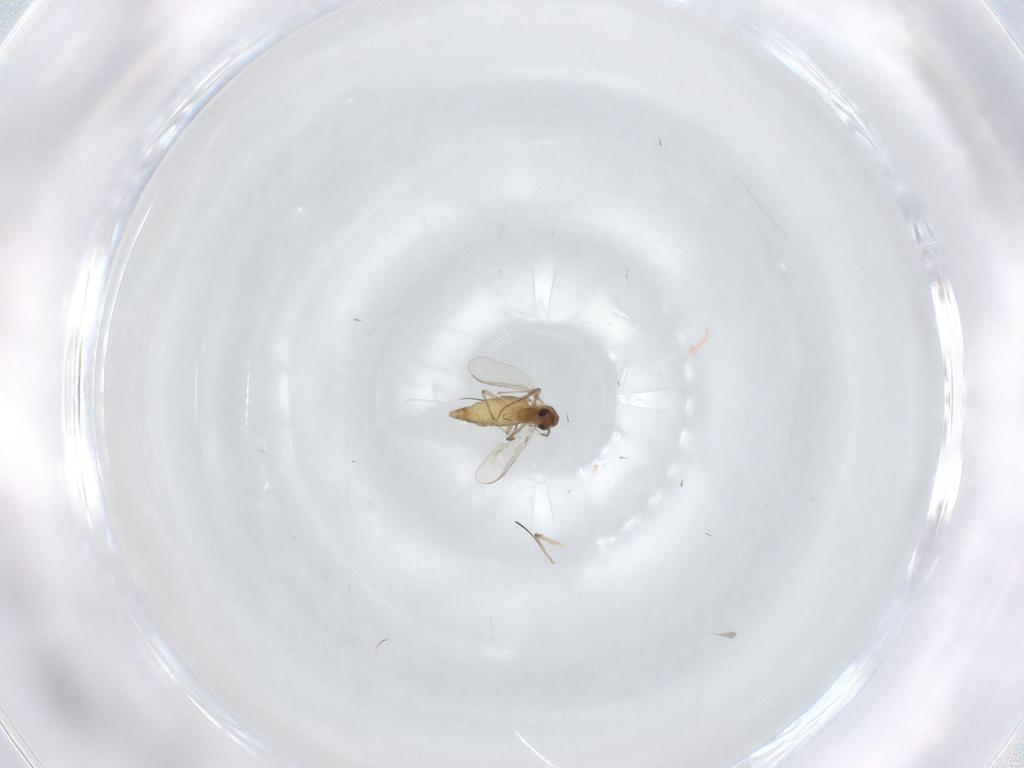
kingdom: Animalia
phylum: Arthropoda
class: Insecta
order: Diptera
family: Chironomidae
